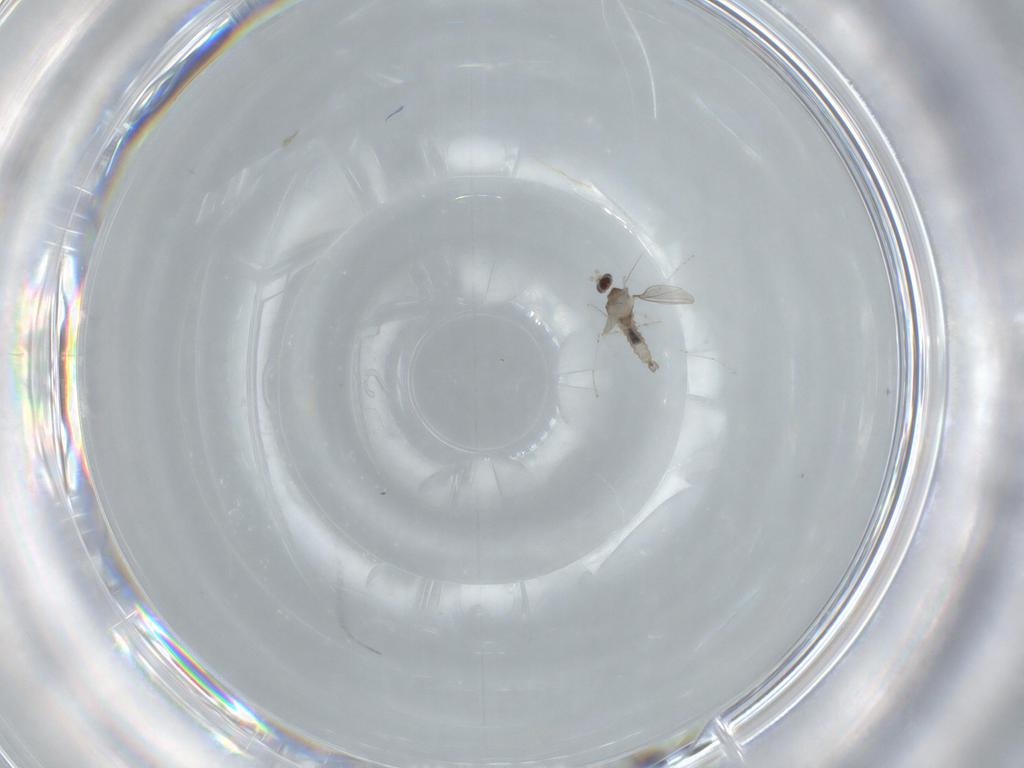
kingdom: Animalia
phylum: Arthropoda
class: Insecta
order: Diptera
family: Cecidomyiidae
